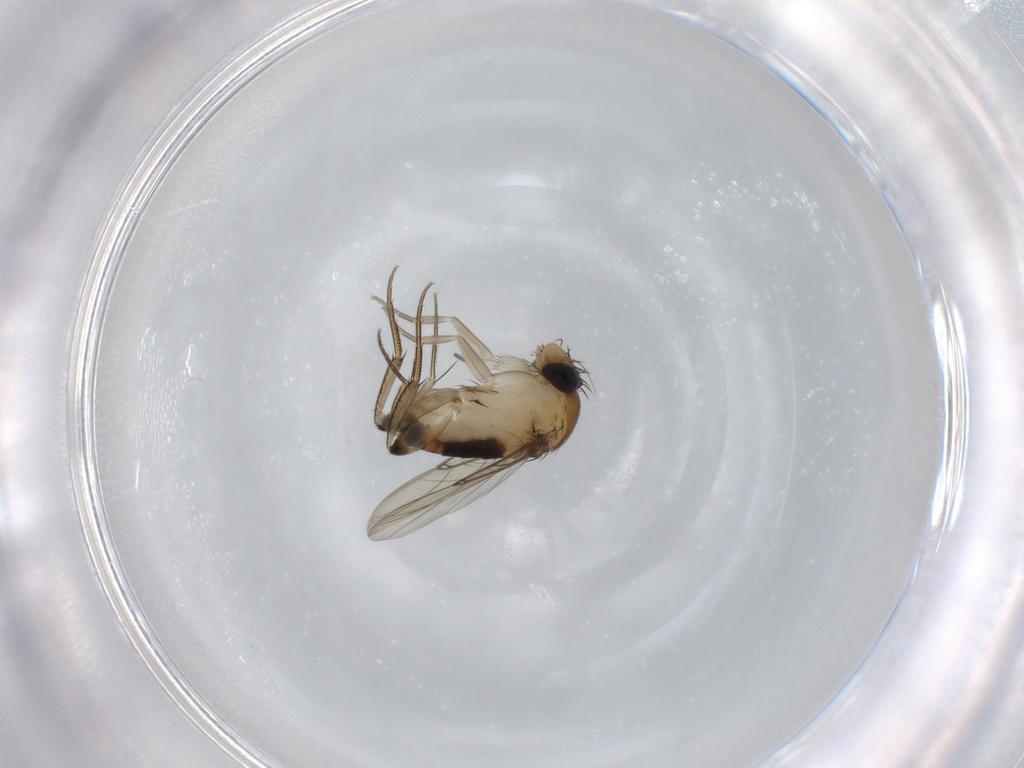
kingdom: Animalia
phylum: Arthropoda
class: Insecta
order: Diptera
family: Phoridae
